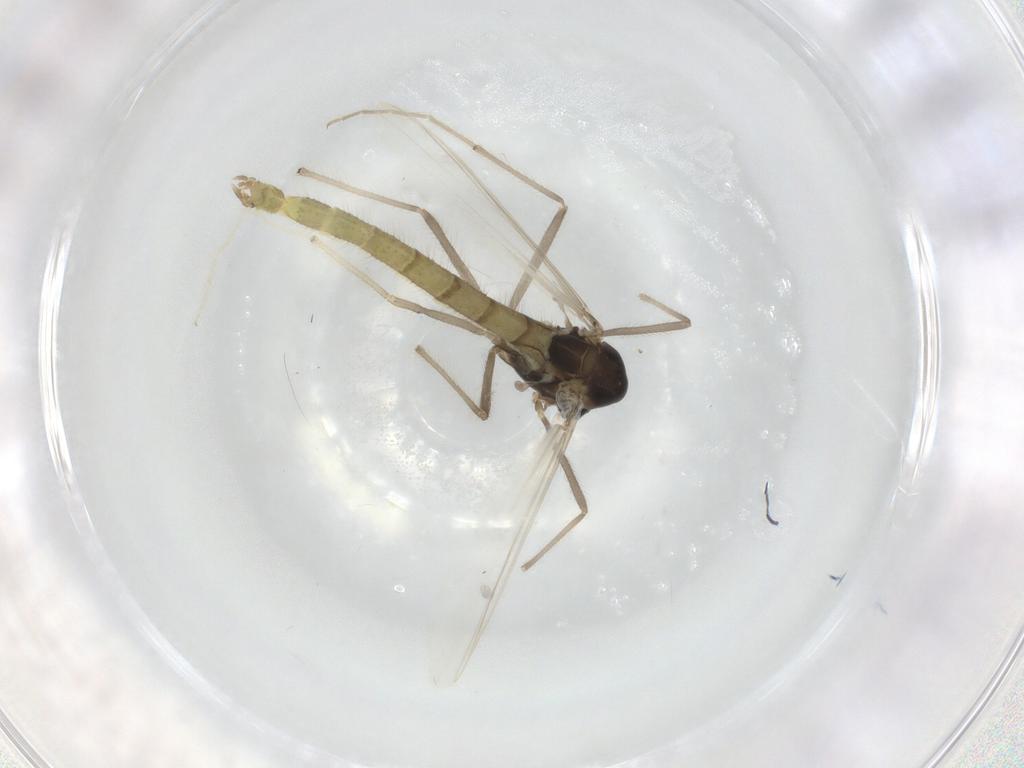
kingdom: Animalia
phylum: Arthropoda
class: Insecta
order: Diptera
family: Chironomidae
